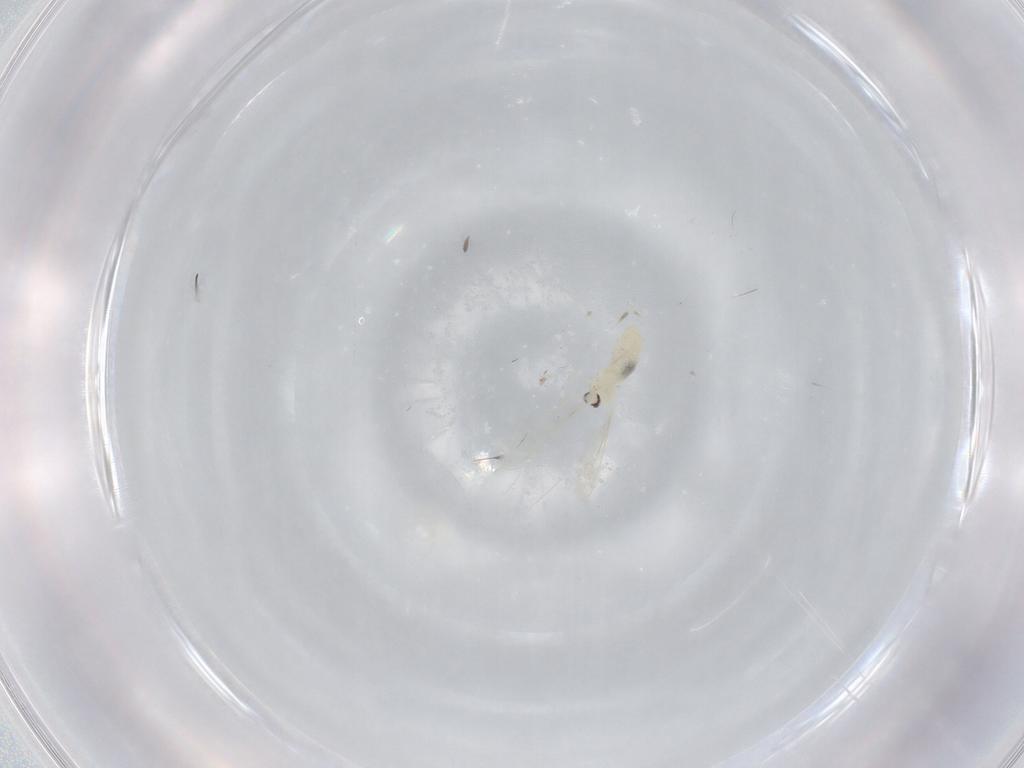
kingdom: Animalia
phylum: Arthropoda
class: Insecta
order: Diptera
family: Cecidomyiidae
